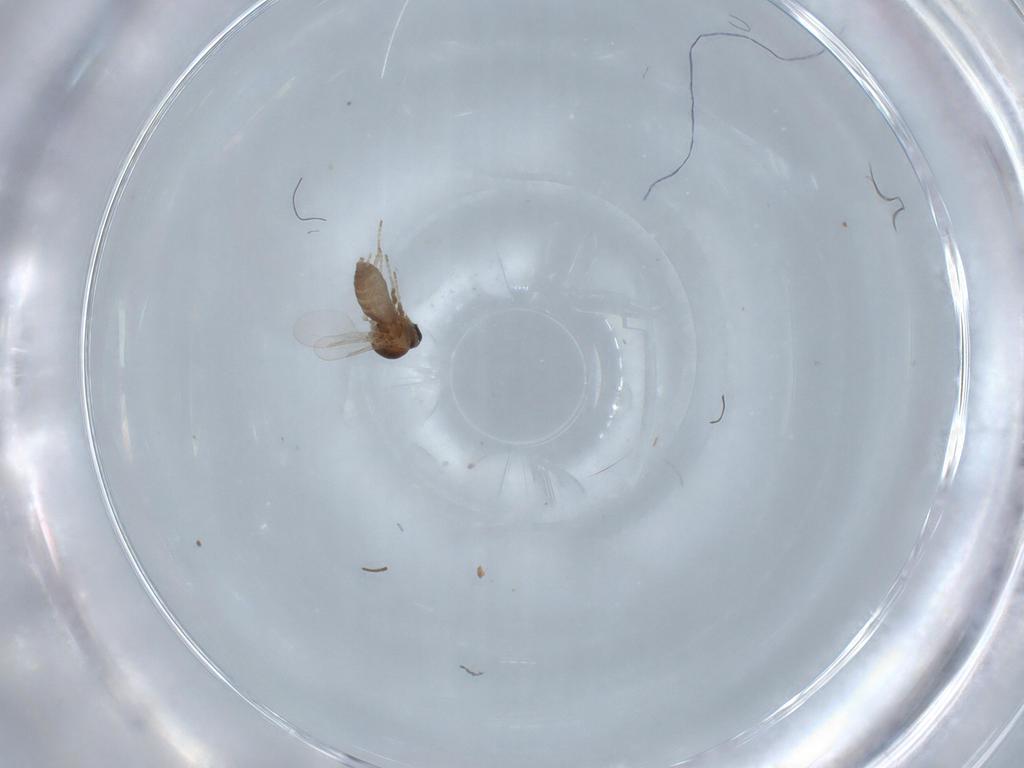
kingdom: Animalia
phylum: Arthropoda
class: Insecta
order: Diptera
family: Ceratopogonidae
